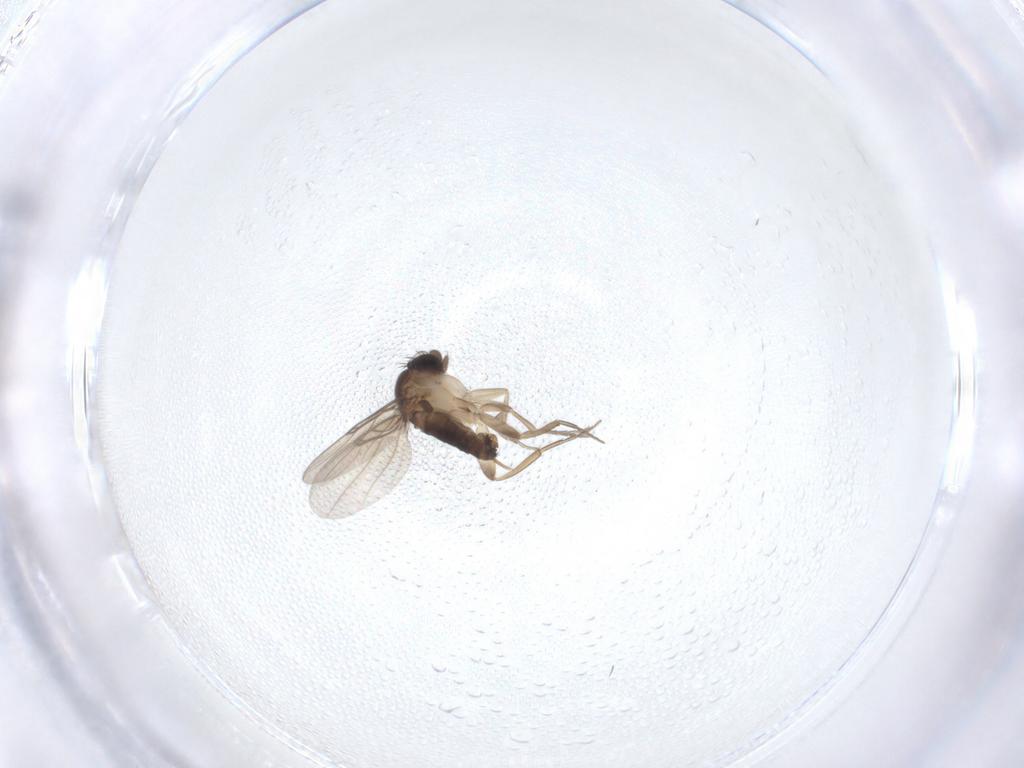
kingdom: Animalia
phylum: Arthropoda
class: Insecta
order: Diptera
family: Phoridae
